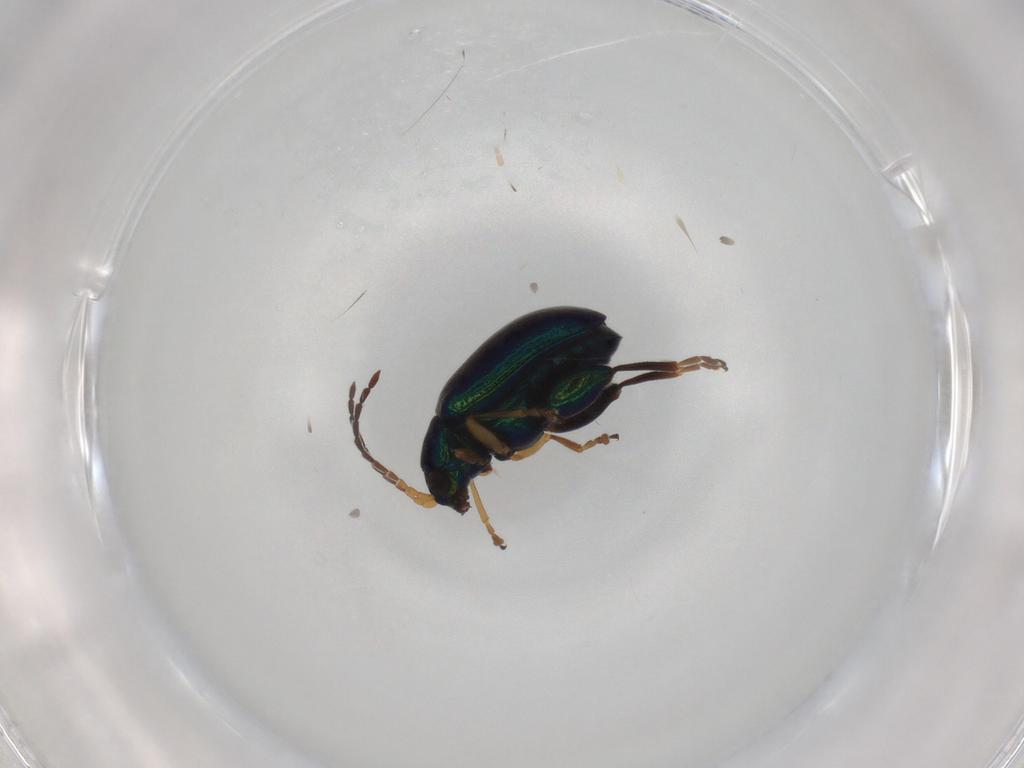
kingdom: Animalia
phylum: Arthropoda
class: Insecta
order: Coleoptera
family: Chrysomelidae
